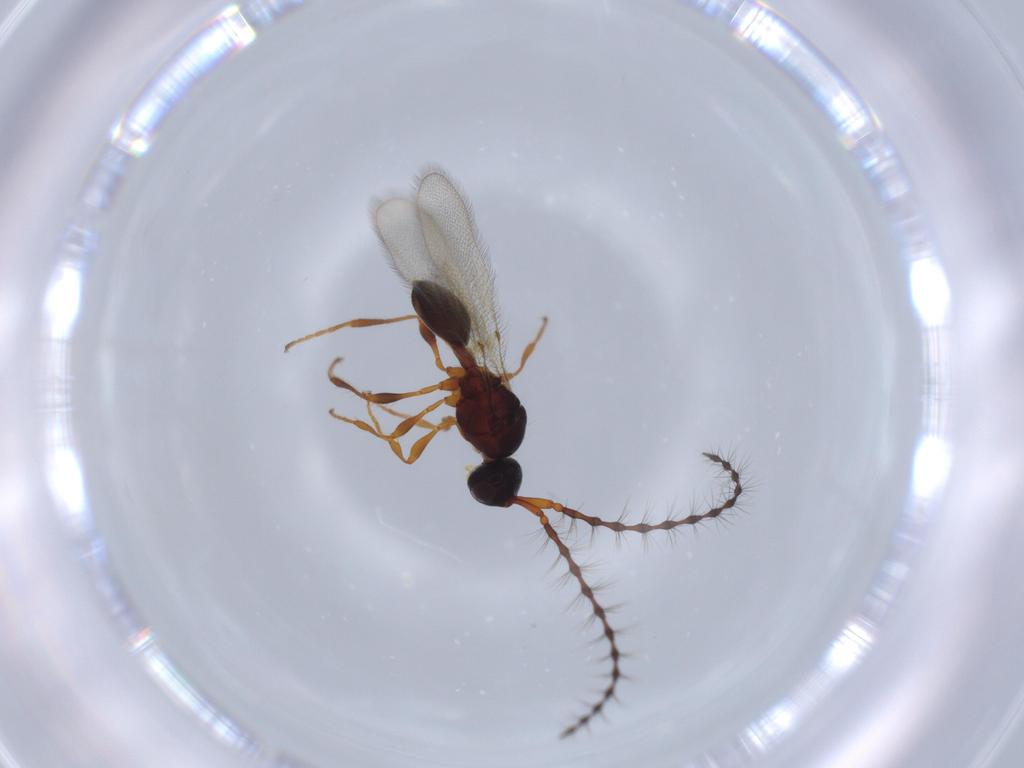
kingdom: Animalia
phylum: Arthropoda
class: Insecta
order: Hymenoptera
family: Diapriidae
